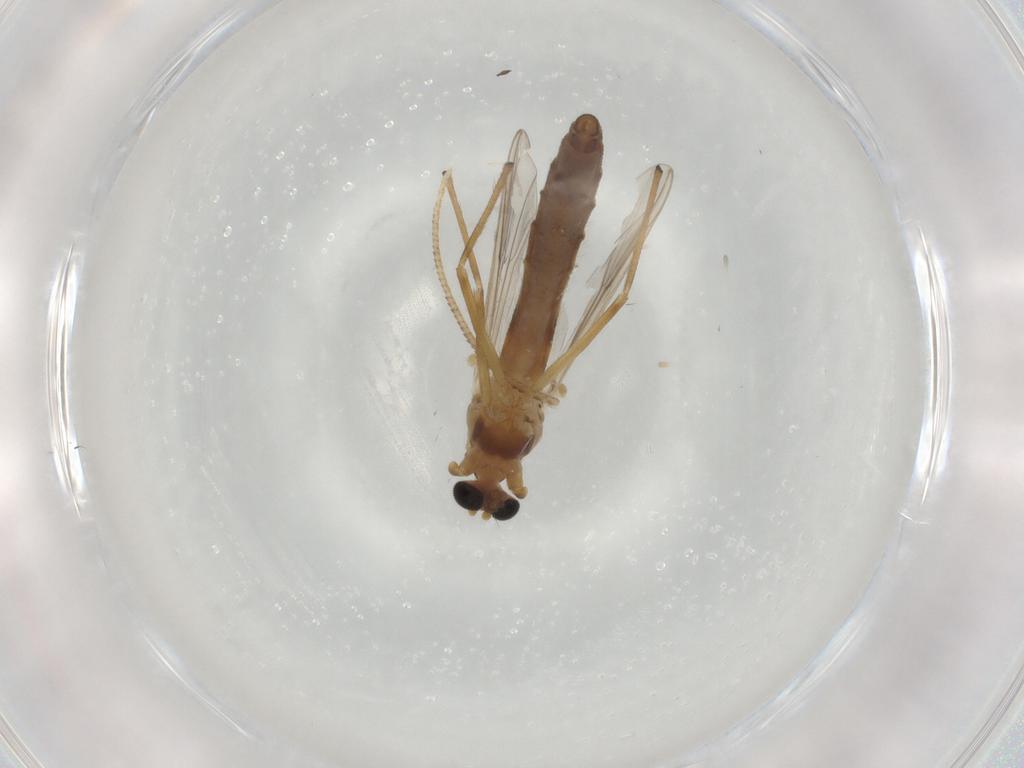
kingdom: Animalia
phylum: Arthropoda
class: Insecta
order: Diptera
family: Chironomidae
